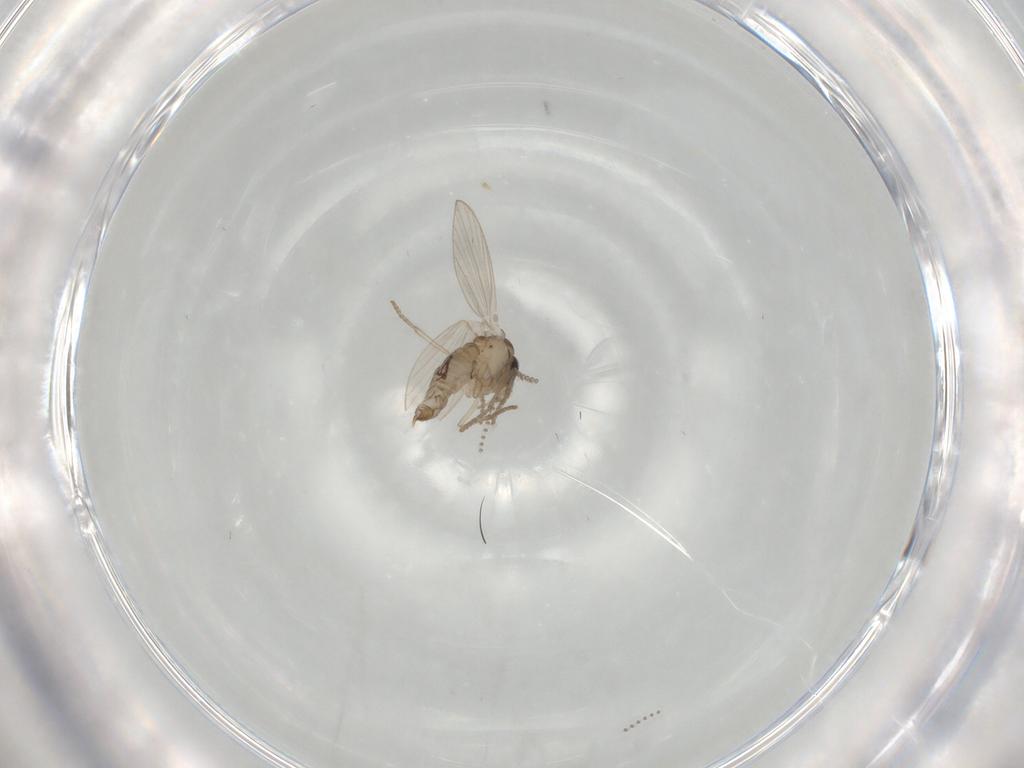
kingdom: Animalia
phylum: Arthropoda
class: Insecta
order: Diptera
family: Psychodidae
